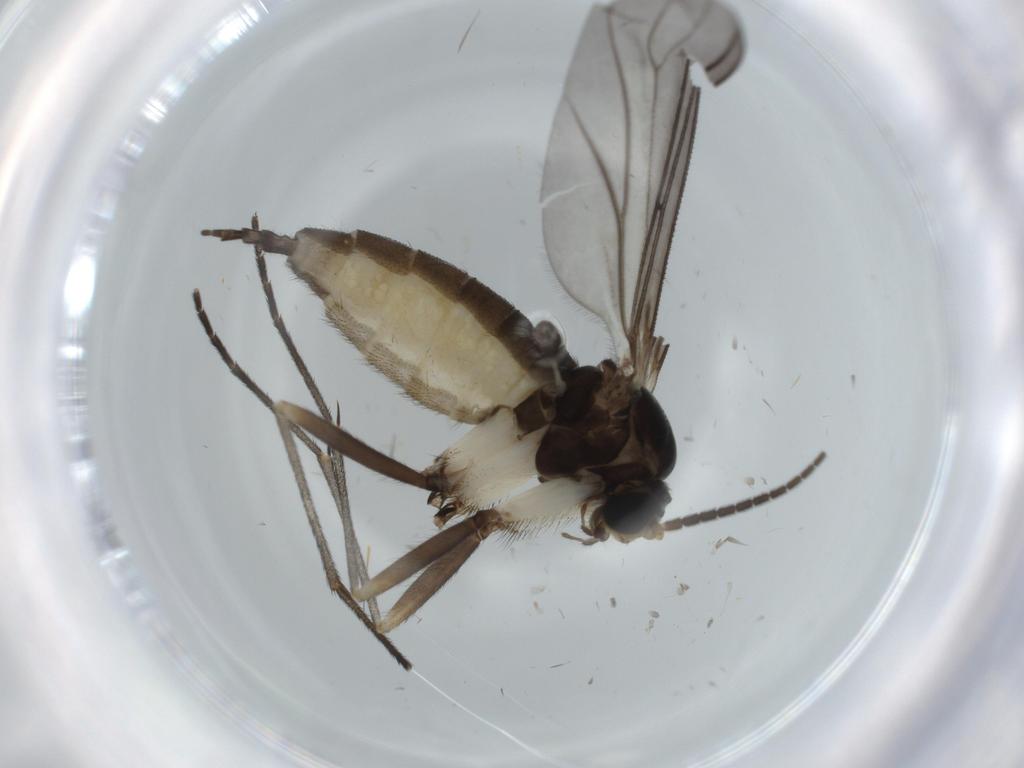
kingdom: Animalia
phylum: Arthropoda
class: Insecta
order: Diptera
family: Sciaridae
